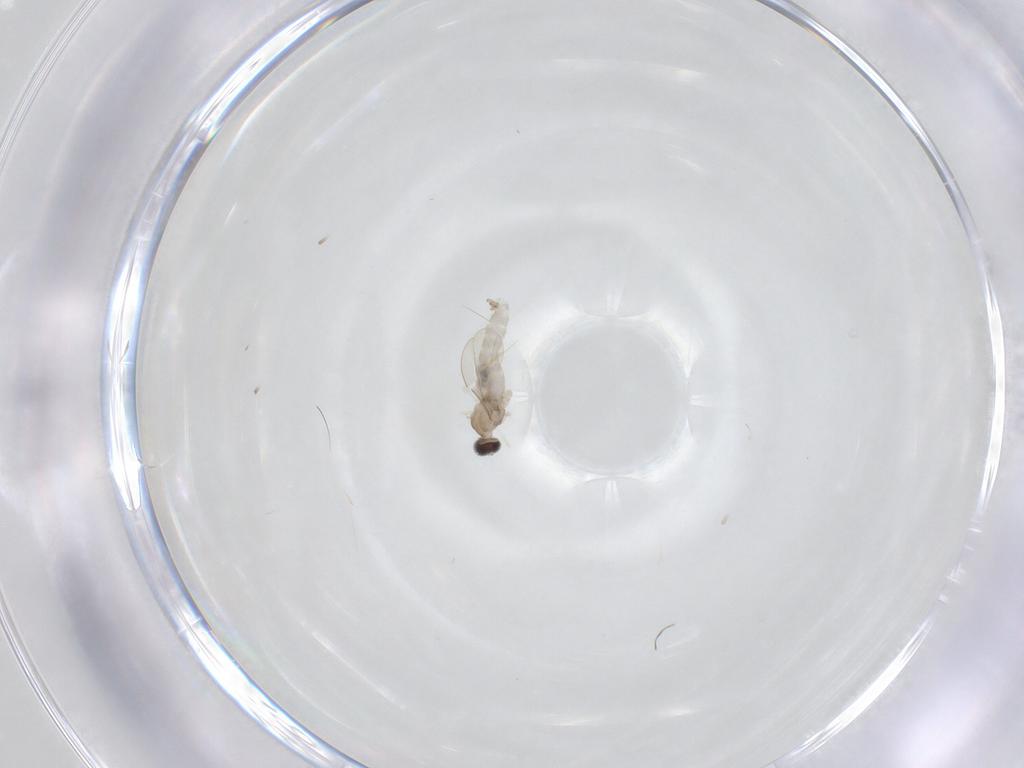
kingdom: Animalia
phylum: Arthropoda
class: Insecta
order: Diptera
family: Cecidomyiidae
